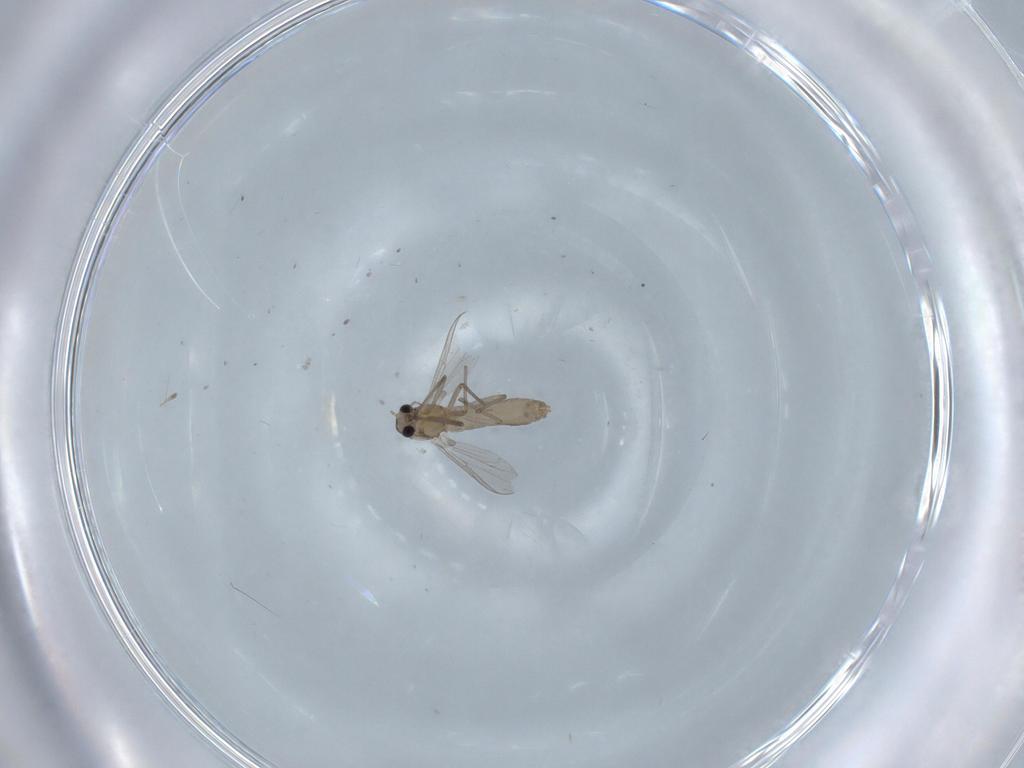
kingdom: Animalia
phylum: Arthropoda
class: Insecta
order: Diptera
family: Chironomidae
